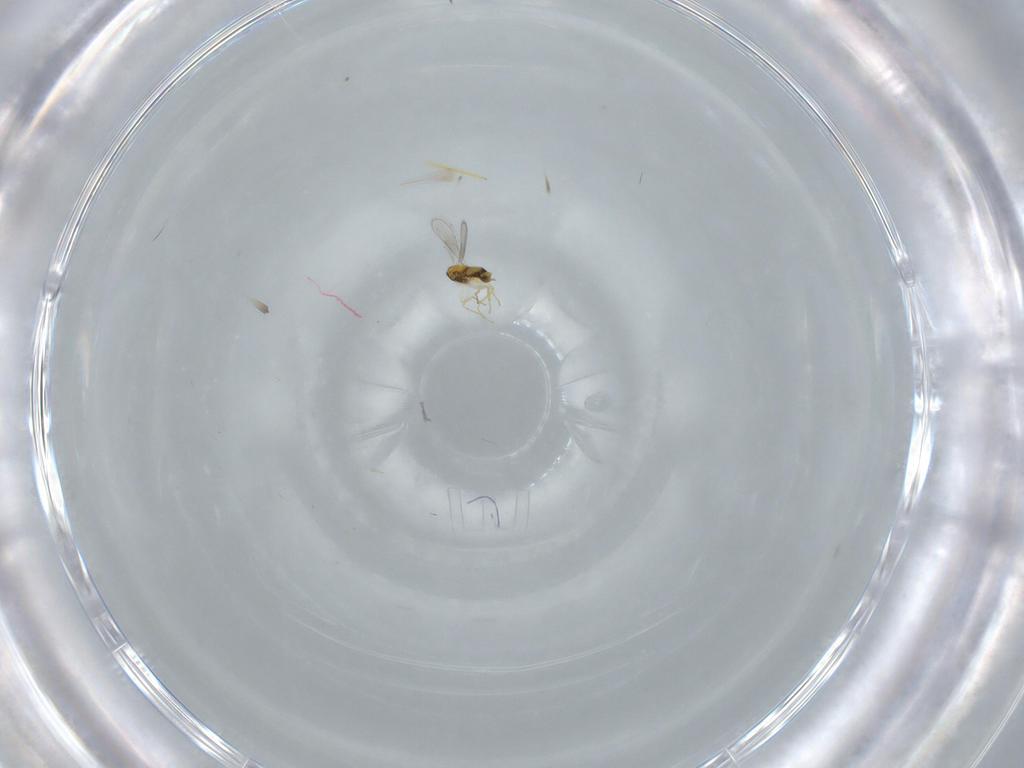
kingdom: Animalia
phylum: Arthropoda
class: Insecta
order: Hymenoptera
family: Aphelinidae
